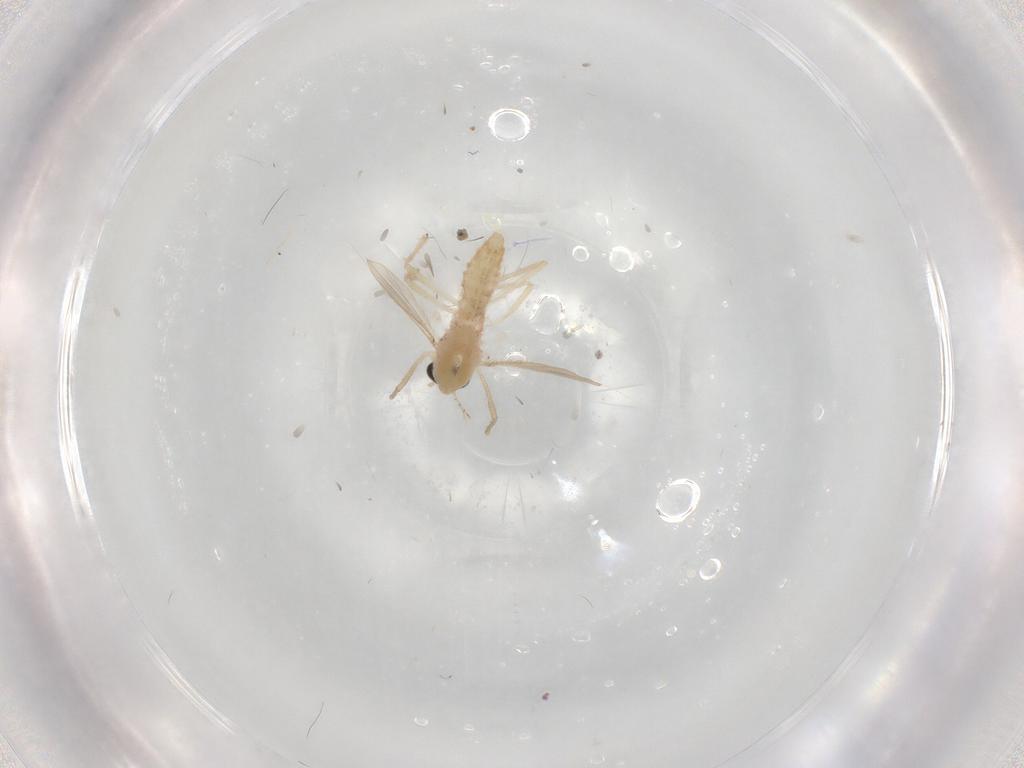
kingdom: Animalia
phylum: Arthropoda
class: Insecta
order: Diptera
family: Chironomidae
